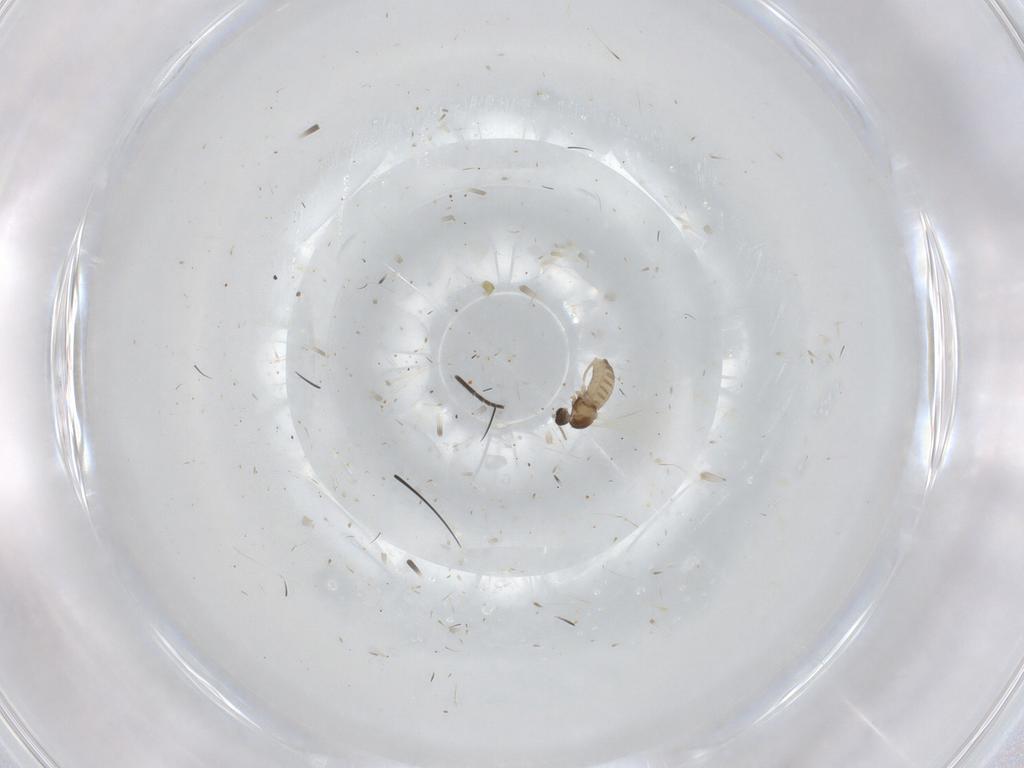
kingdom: Animalia
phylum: Arthropoda
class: Insecta
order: Diptera
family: Cecidomyiidae
